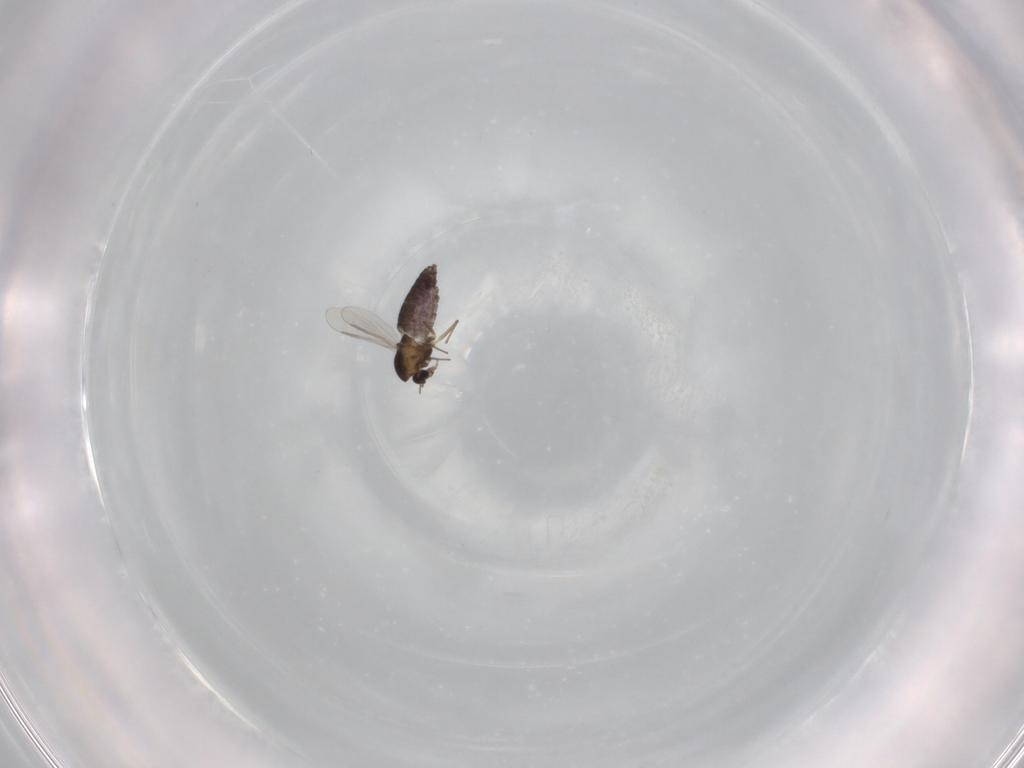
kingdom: Animalia
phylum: Arthropoda
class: Insecta
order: Diptera
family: Chironomidae
